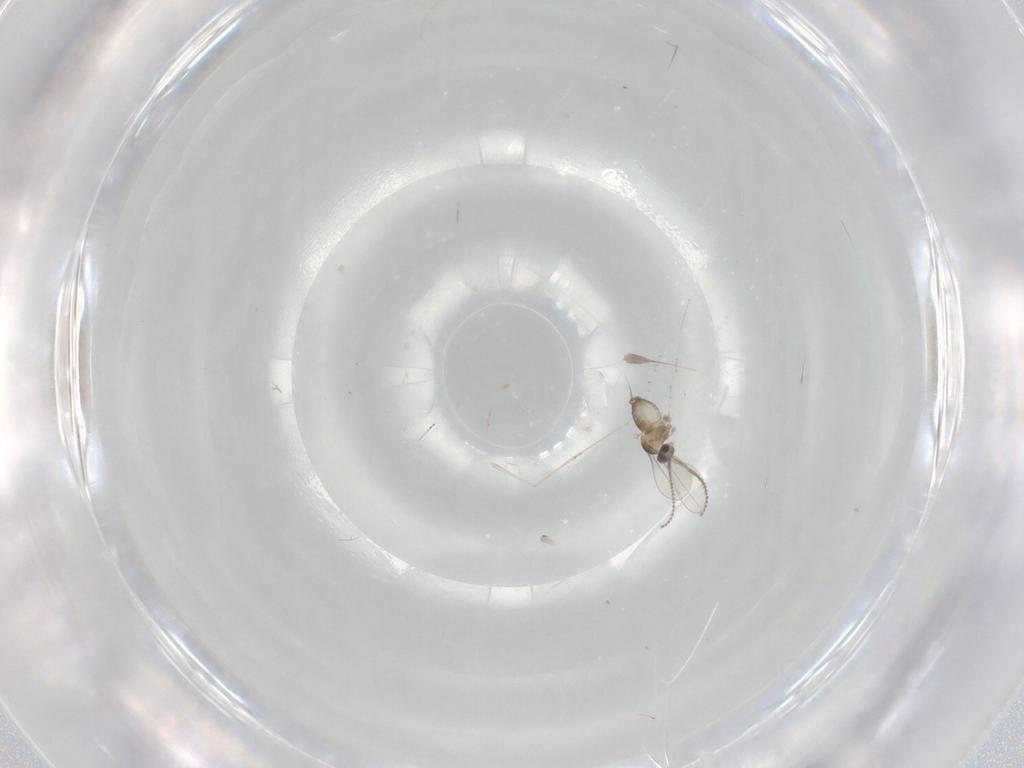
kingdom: Animalia
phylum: Arthropoda
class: Insecta
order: Diptera
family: Cecidomyiidae
